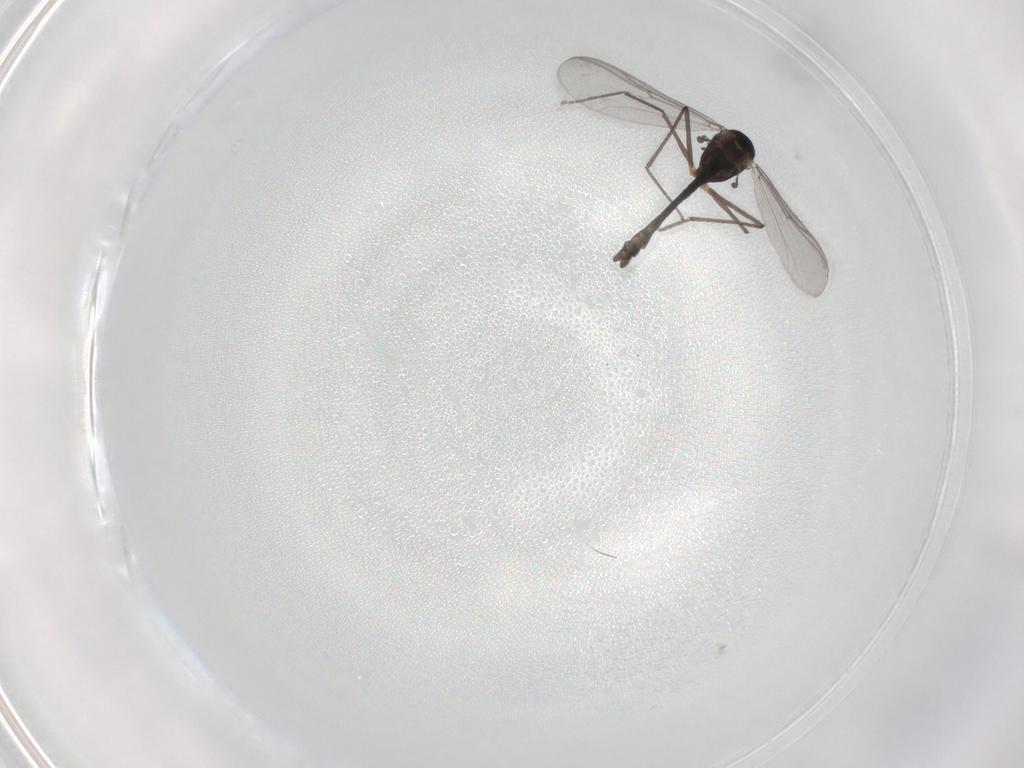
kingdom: Animalia
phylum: Arthropoda
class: Insecta
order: Diptera
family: Chironomidae
